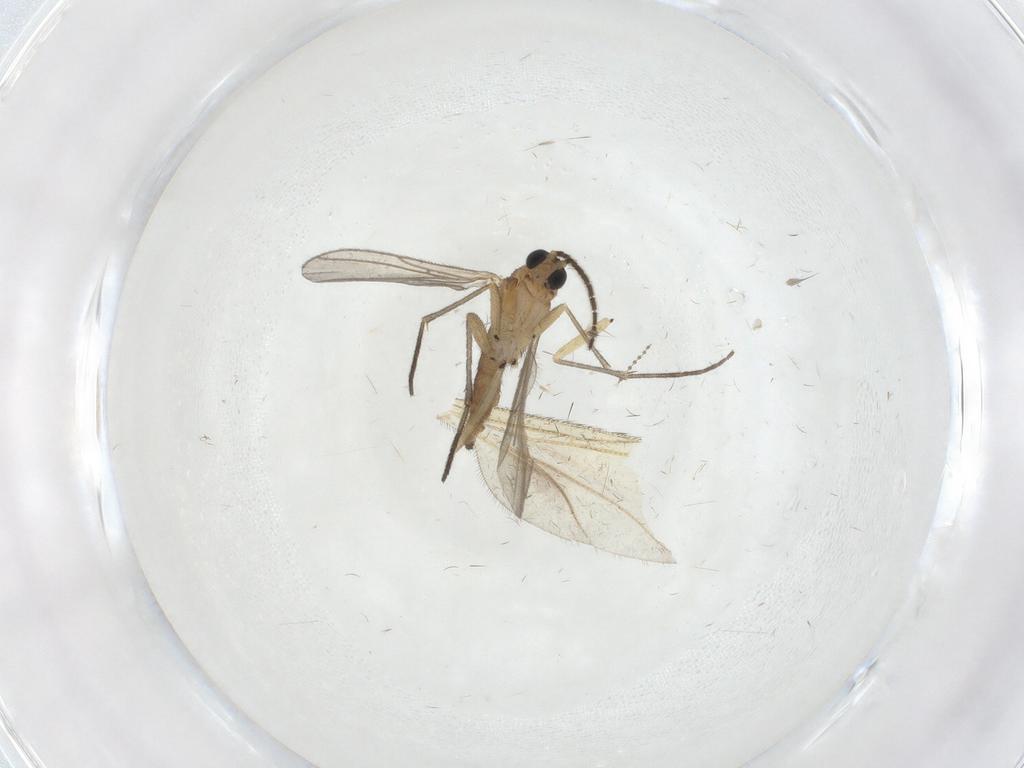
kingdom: Animalia
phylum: Arthropoda
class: Insecta
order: Diptera
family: Sciaridae
